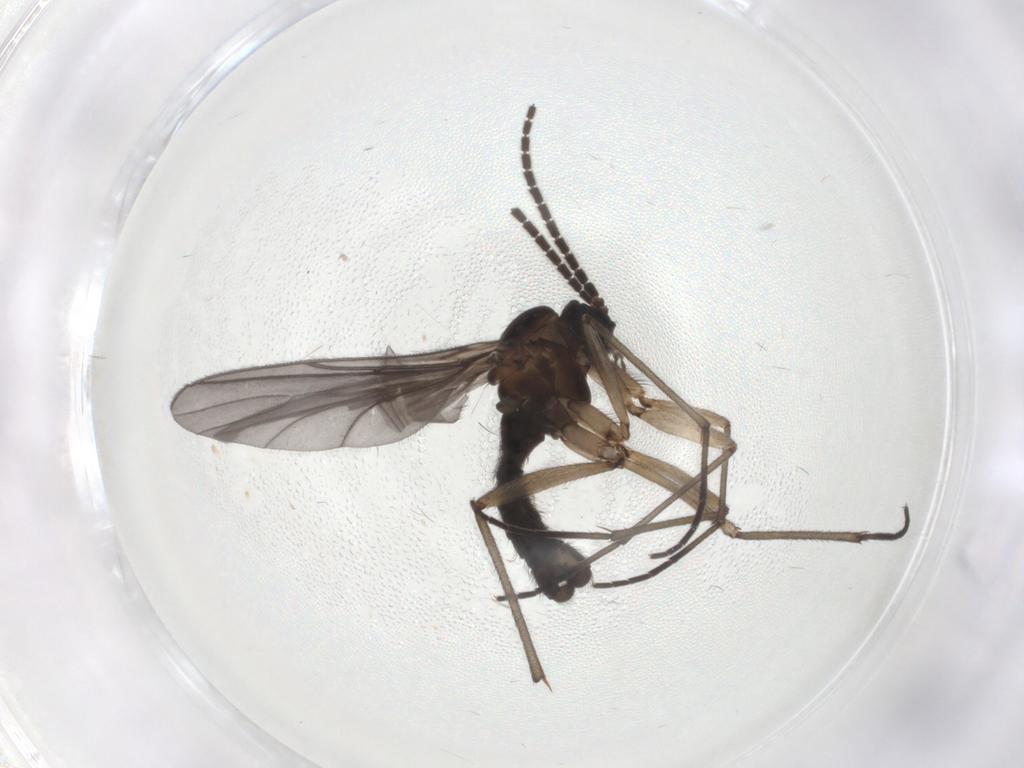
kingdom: Animalia
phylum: Arthropoda
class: Insecta
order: Diptera
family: Sciaridae
